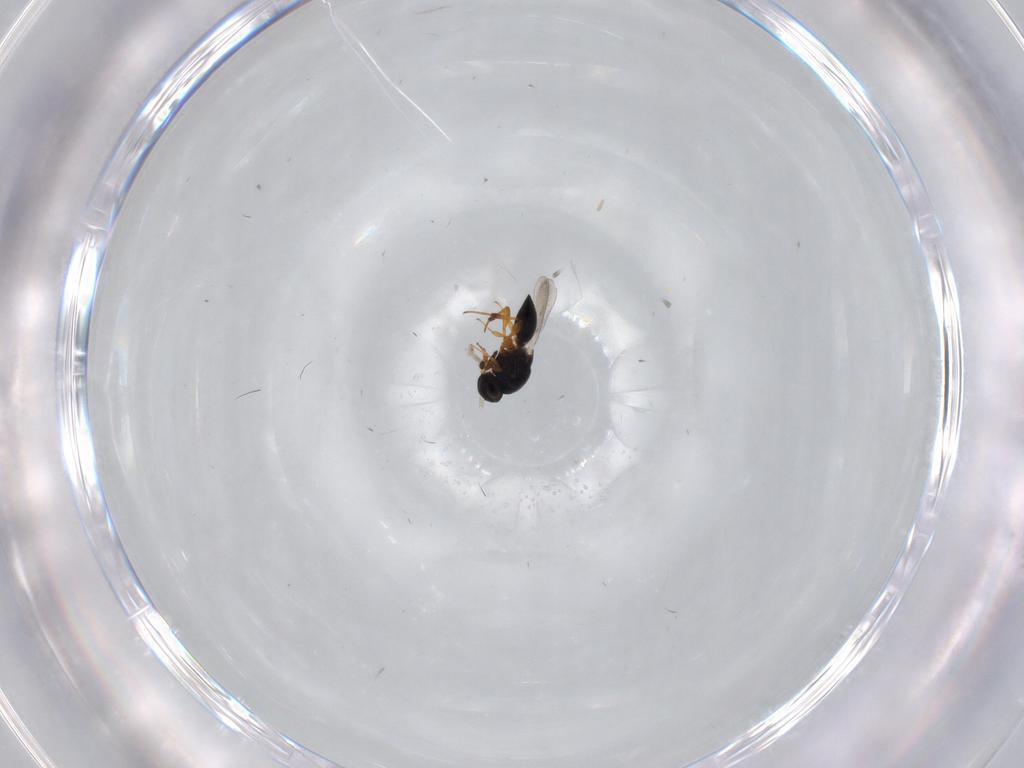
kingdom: Animalia
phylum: Arthropoda
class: Insecta
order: Hymenoptera
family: Platygastridae
